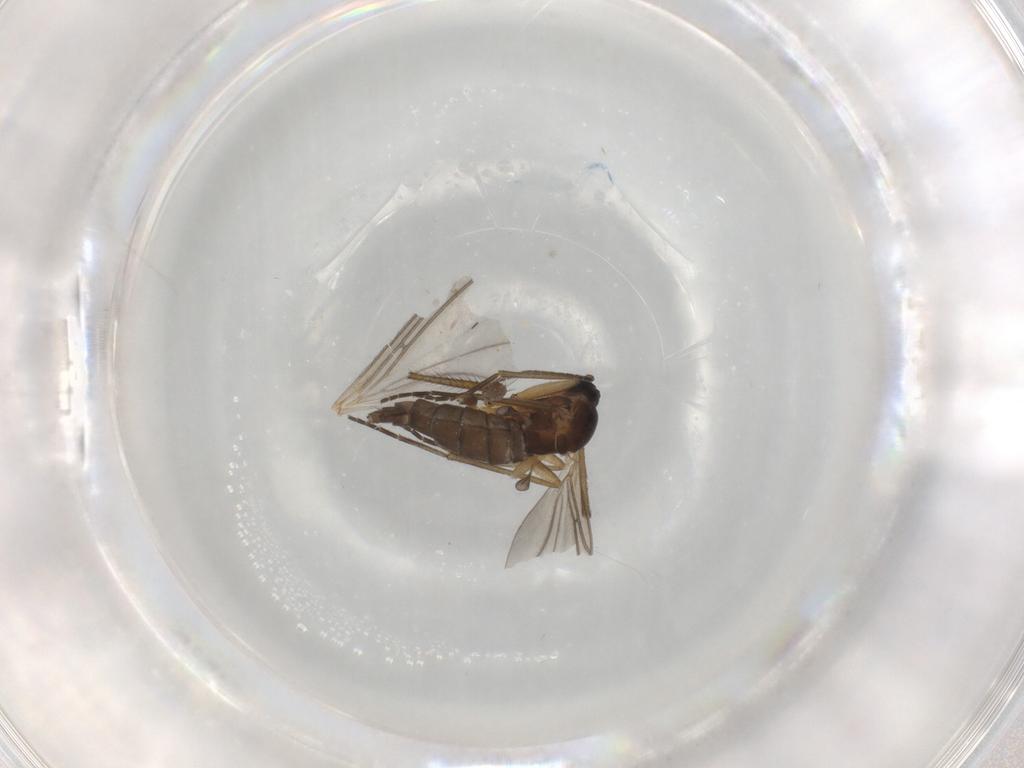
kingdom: Animalia
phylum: Arthropoda
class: Insecta
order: Diptera
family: Sciaridae
